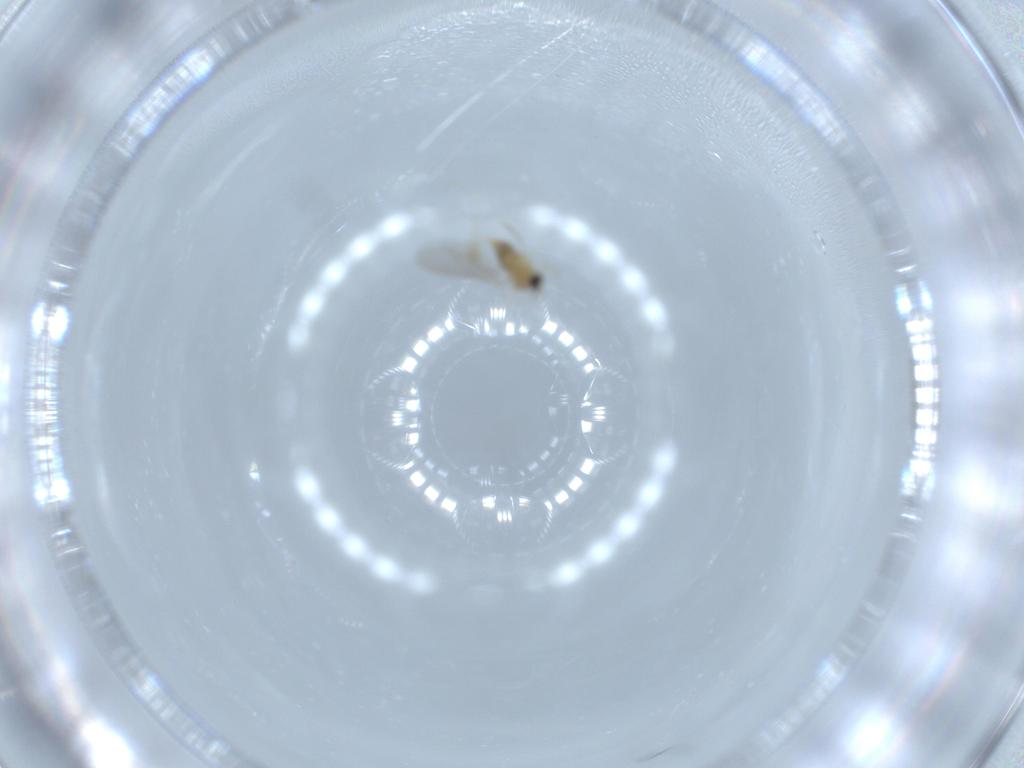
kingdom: Animalia
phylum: Arthropoda
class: Insecta
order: Diptera
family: Cecidomyiidae
